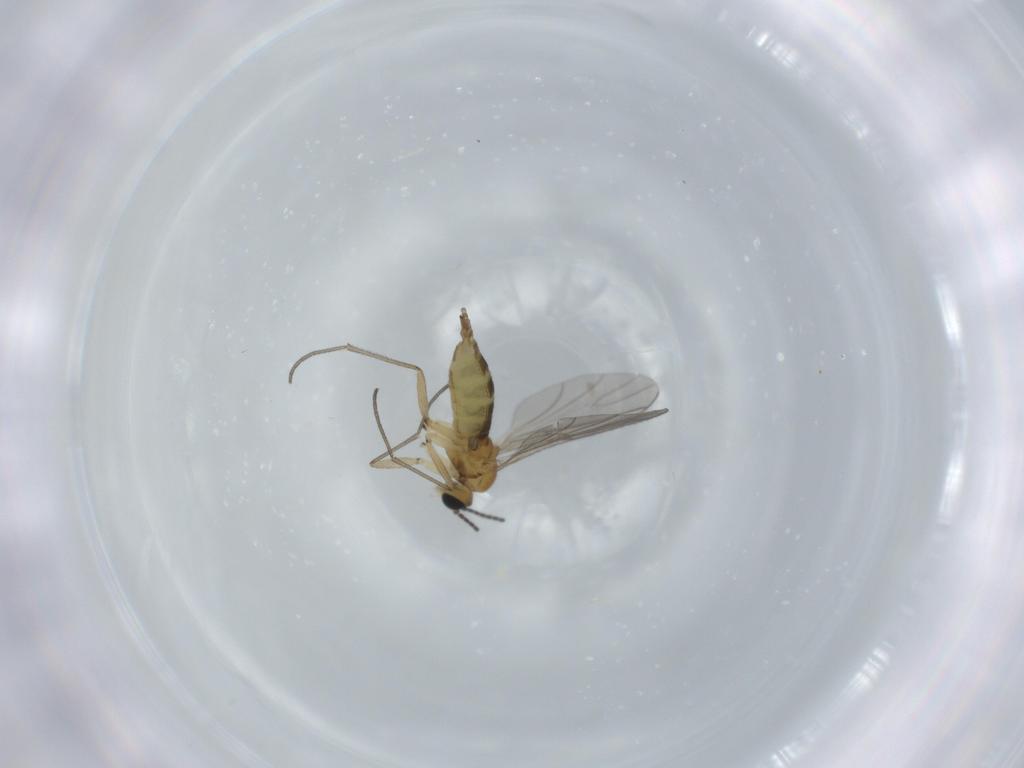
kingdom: Animalia
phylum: Arthropoda
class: Insecta
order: Diptera
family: Sciaridae
